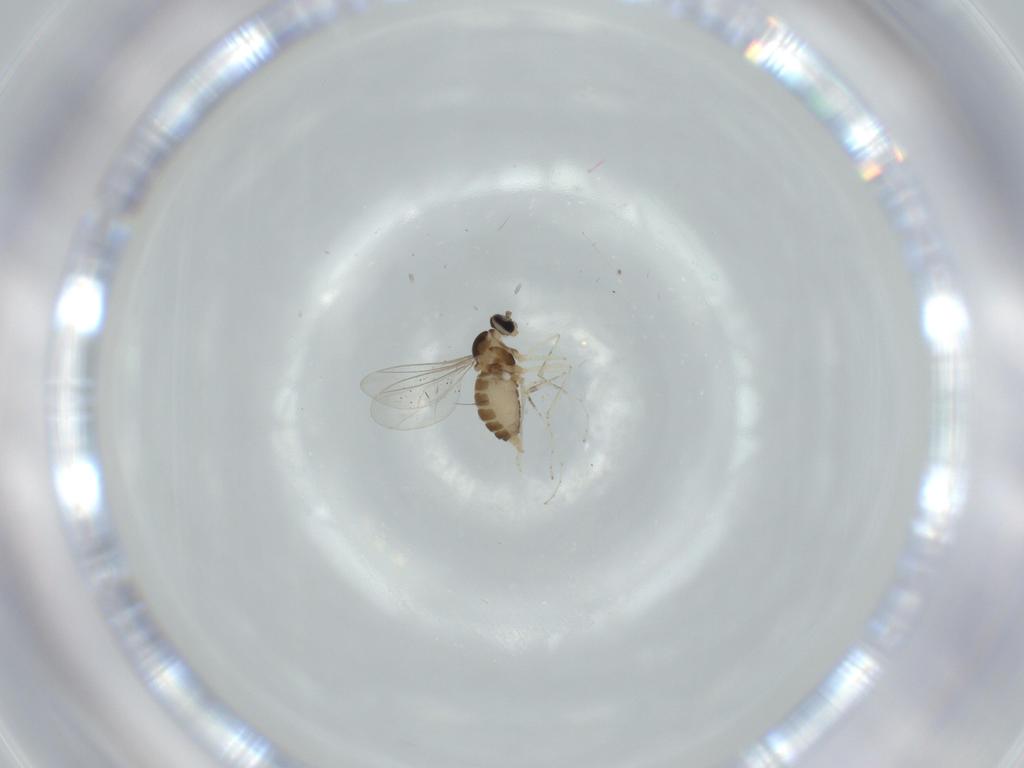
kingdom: Animalia
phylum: Arthropoda
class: Insecta
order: Diptera
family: Cecidomyiidae
